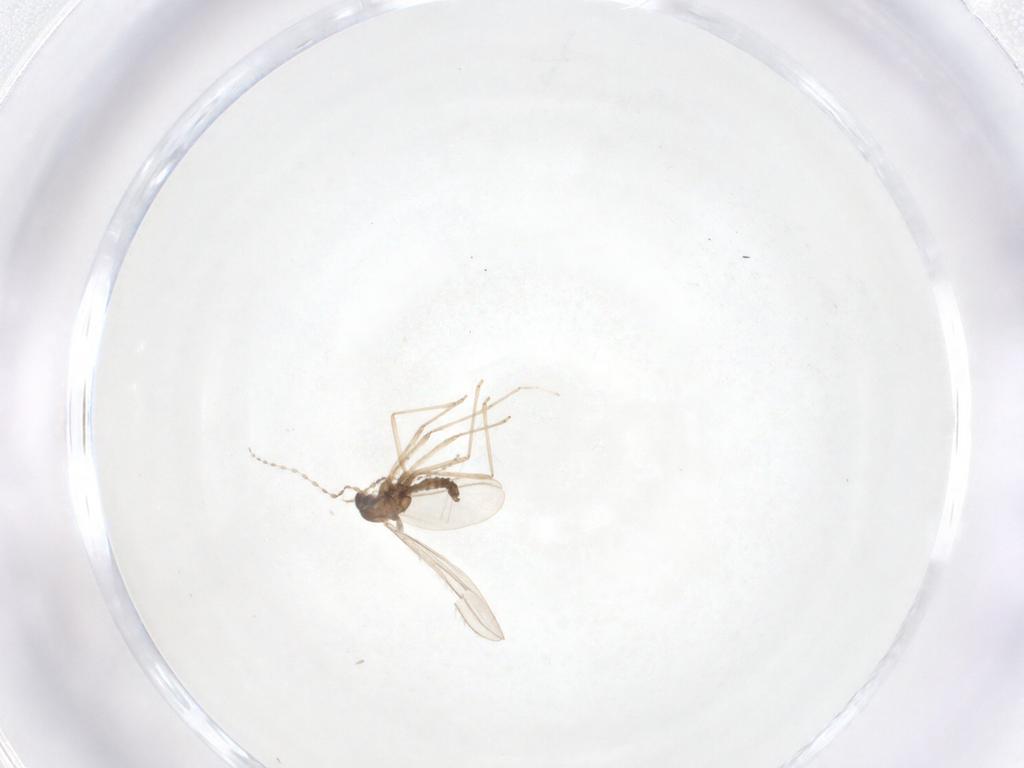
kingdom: Animalia
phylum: Arthropoda
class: Insecta
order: Diptera
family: Cecidomyiidae
